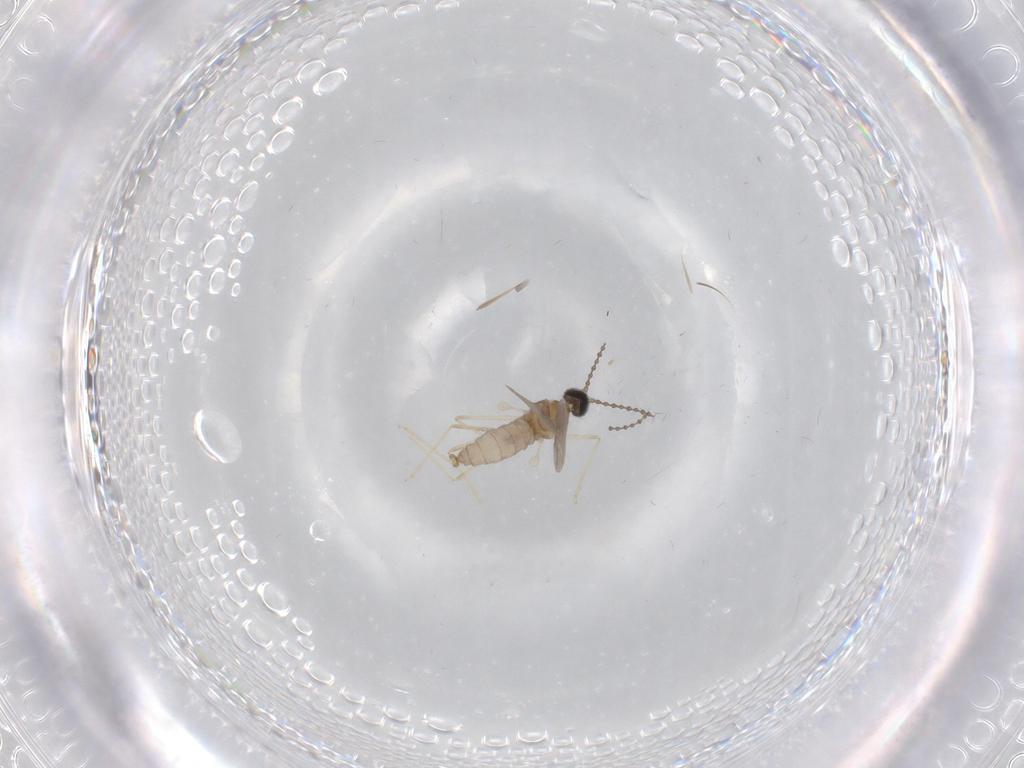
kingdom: Animalia
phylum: Arthropoda
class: Insecta
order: Diptera
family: Cecidomyiidae
